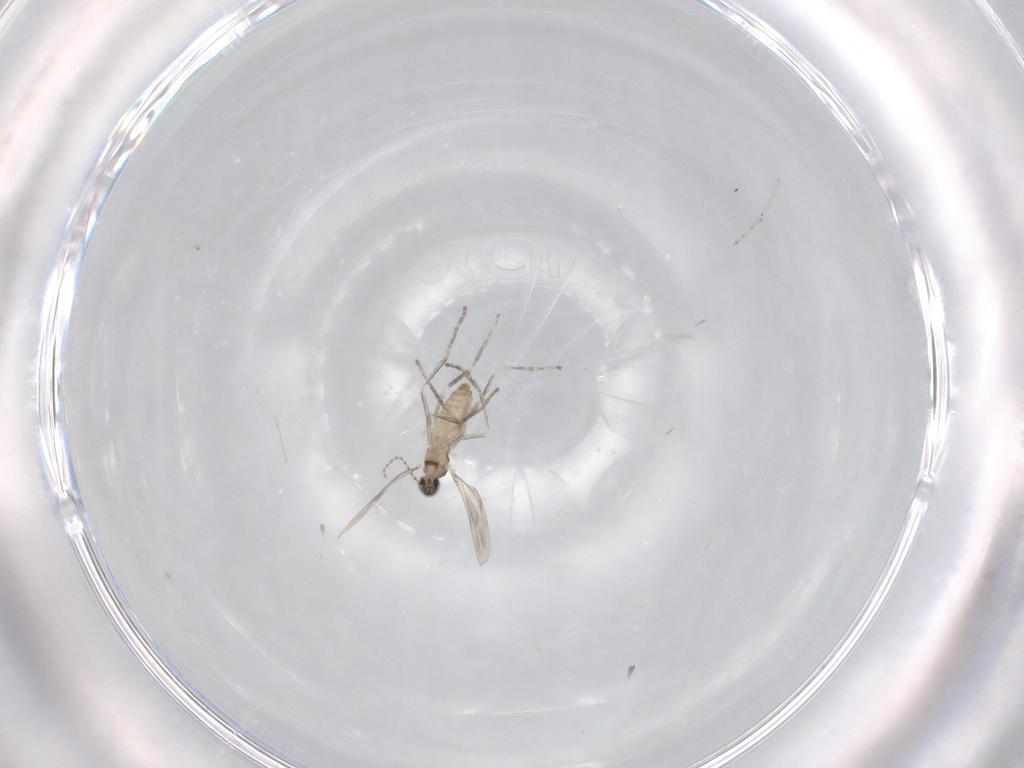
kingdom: Animalia
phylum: Arthropoda
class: Insecta
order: Diptera
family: Cecidomyiidae
